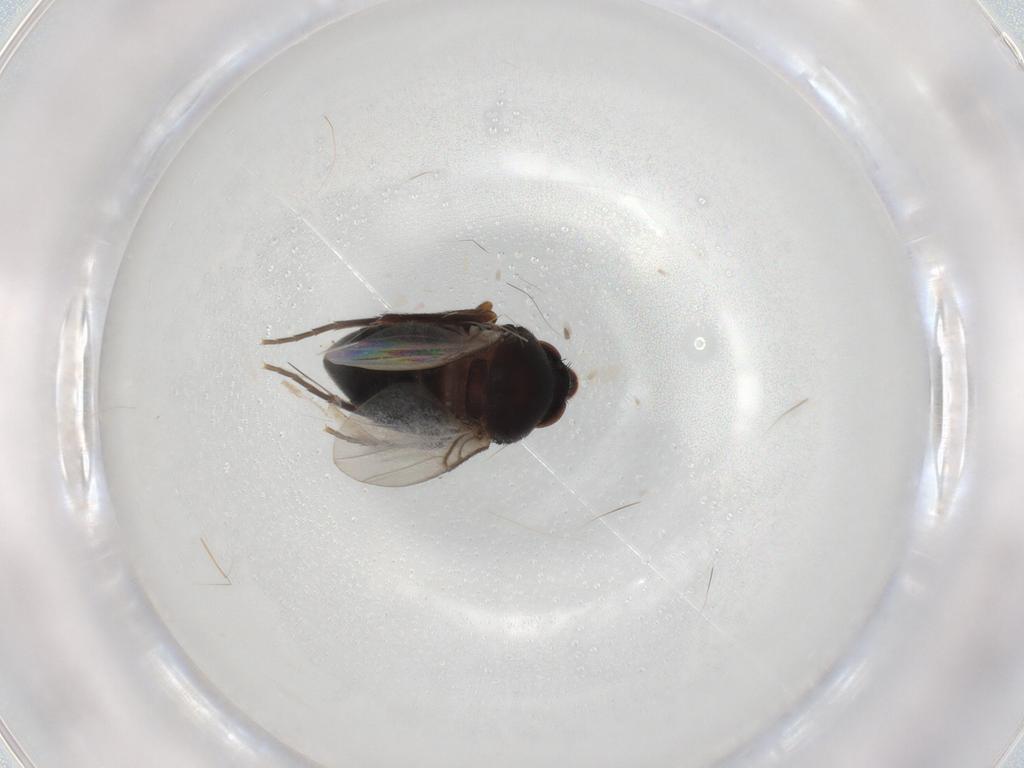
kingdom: Animalia
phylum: Arthropoda
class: Insecta
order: Diptera
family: Phoridae
